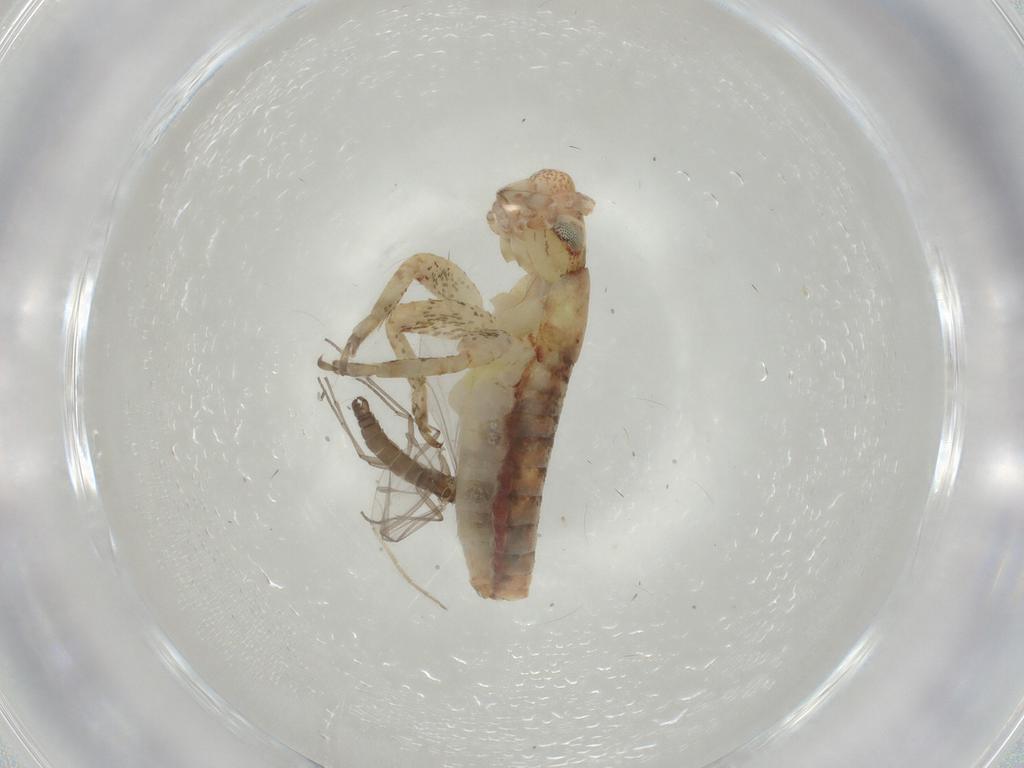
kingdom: Animalia
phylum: Arthropoda
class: Insecta
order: Orthoptera
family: Mogoplistidae
